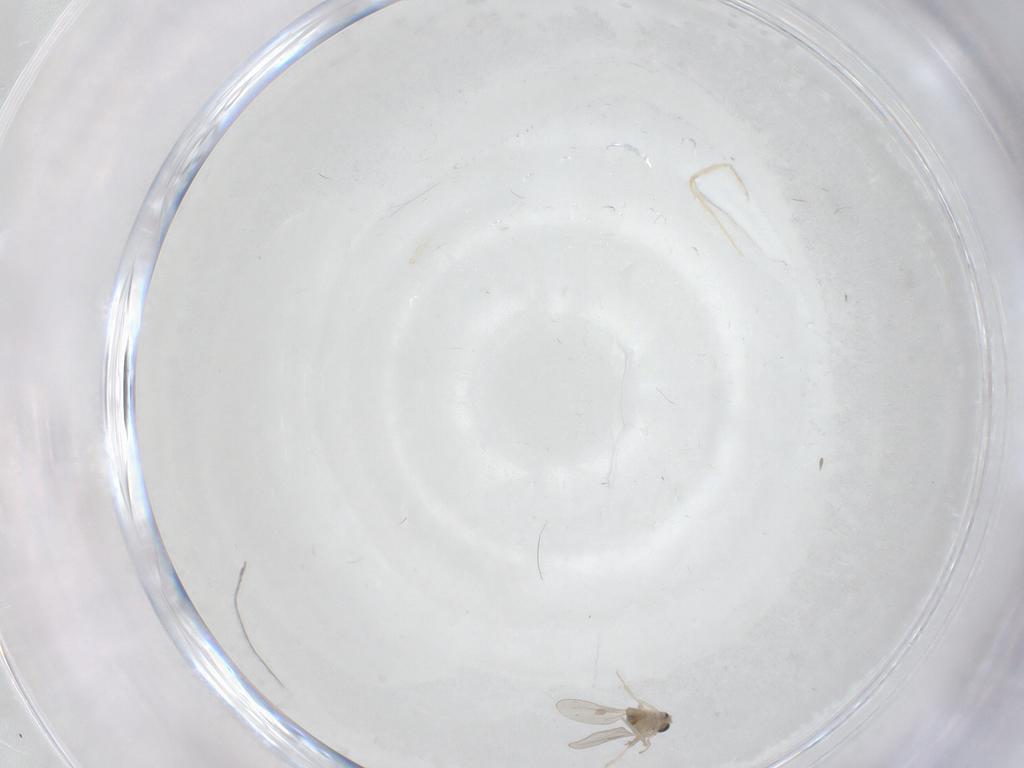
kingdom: Animalia
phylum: Arthropoda
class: Insecta
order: Diptera
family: Cecidomyiidae
